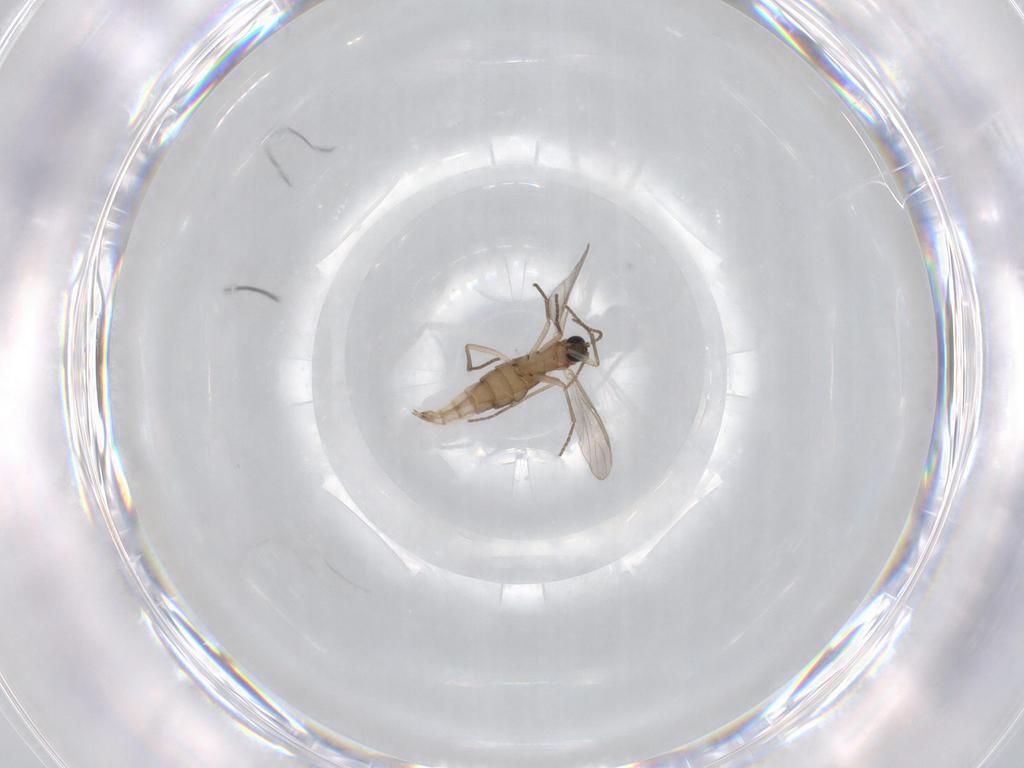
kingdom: Animalia
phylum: Arthropoda
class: Insecta
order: Diptera
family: Sciaridae
